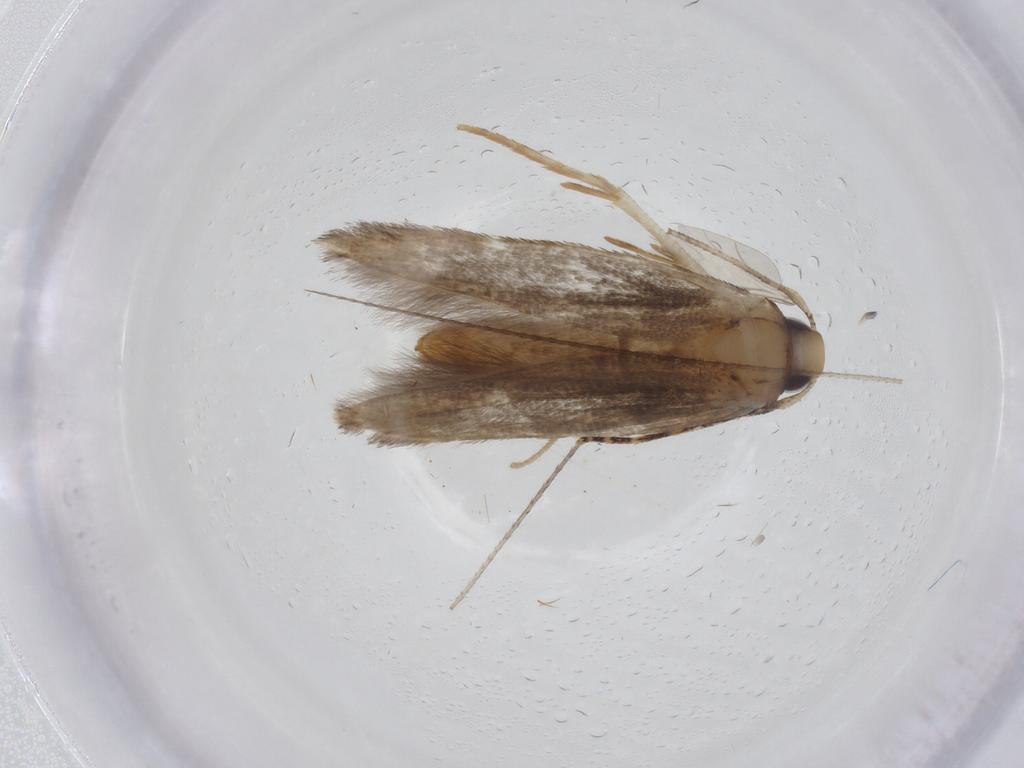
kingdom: Animalia
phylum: Arthropoda
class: Insecta
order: Lepidoptera
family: Cosmopterigidae
